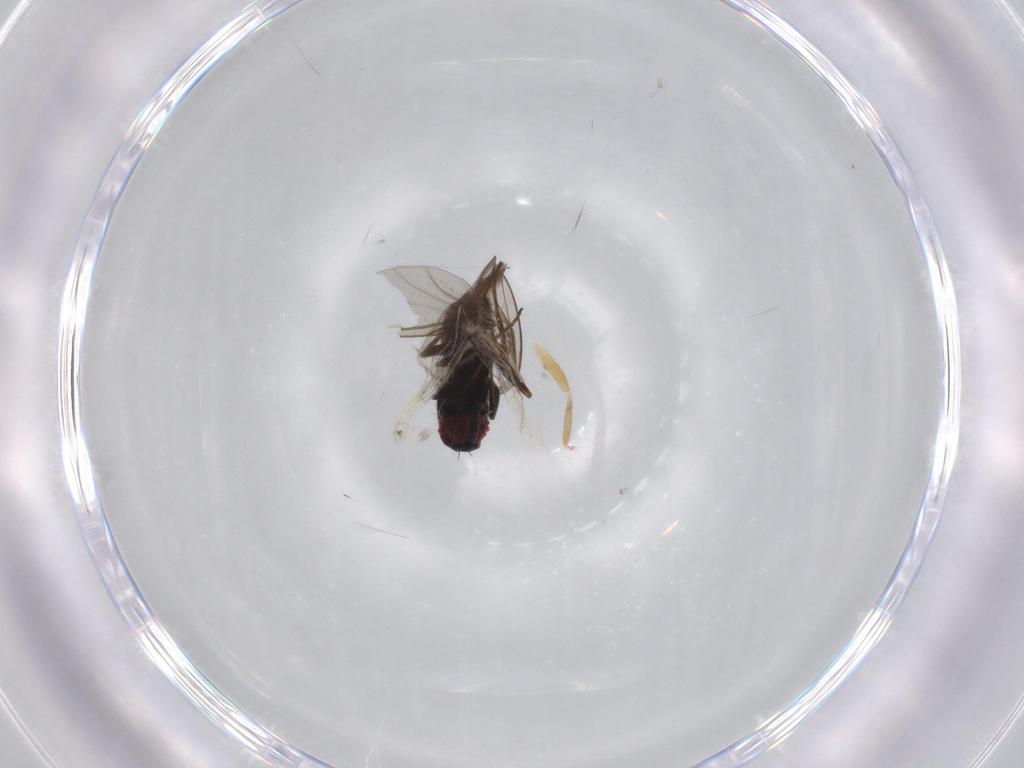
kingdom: Animalia
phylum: Arthropoda
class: Insecta
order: Diptera
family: Dolichopodidae
